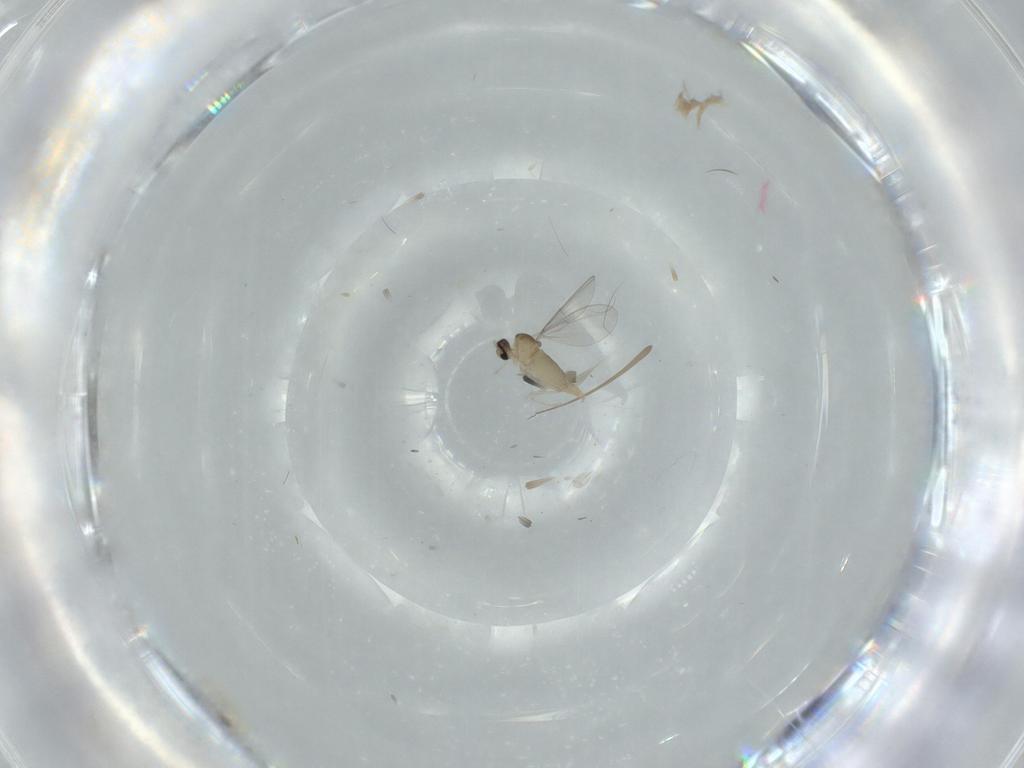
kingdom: Animalia
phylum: Arthropoda
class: Insecta
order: Diptera
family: Cecidomyiidae
